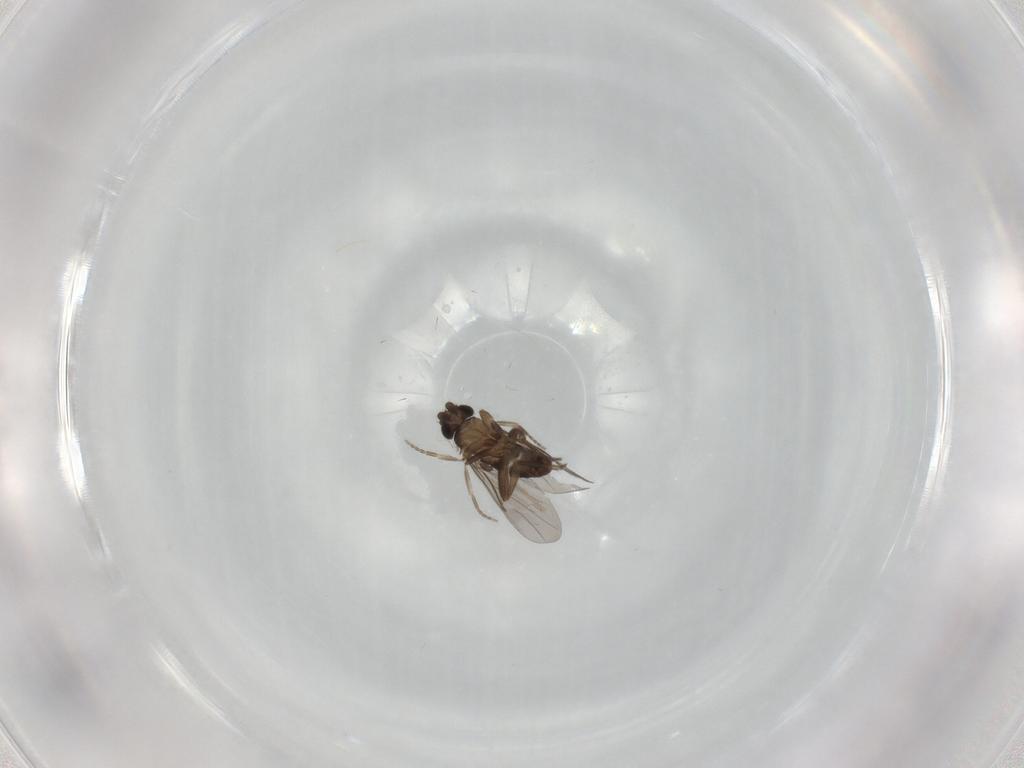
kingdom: Animalia
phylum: Arthropoda
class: Insecta
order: Diptera
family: Muscidae
